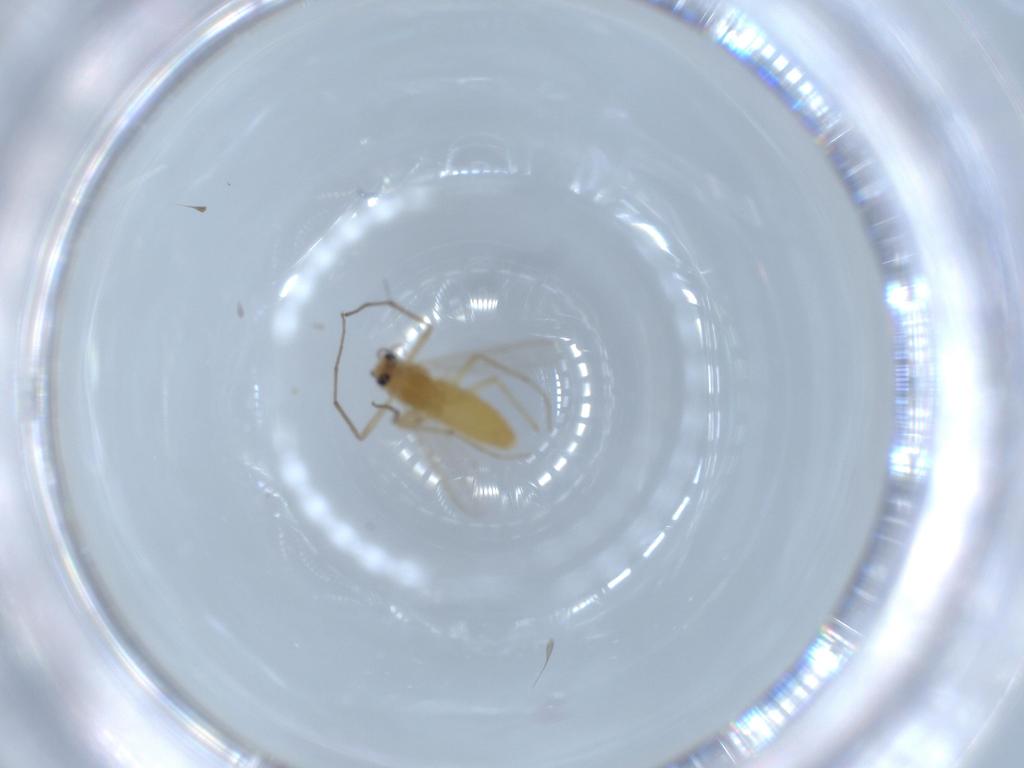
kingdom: Animalia
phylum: Arthropoda
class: Insecta
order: Diptera
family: Chironomidae
